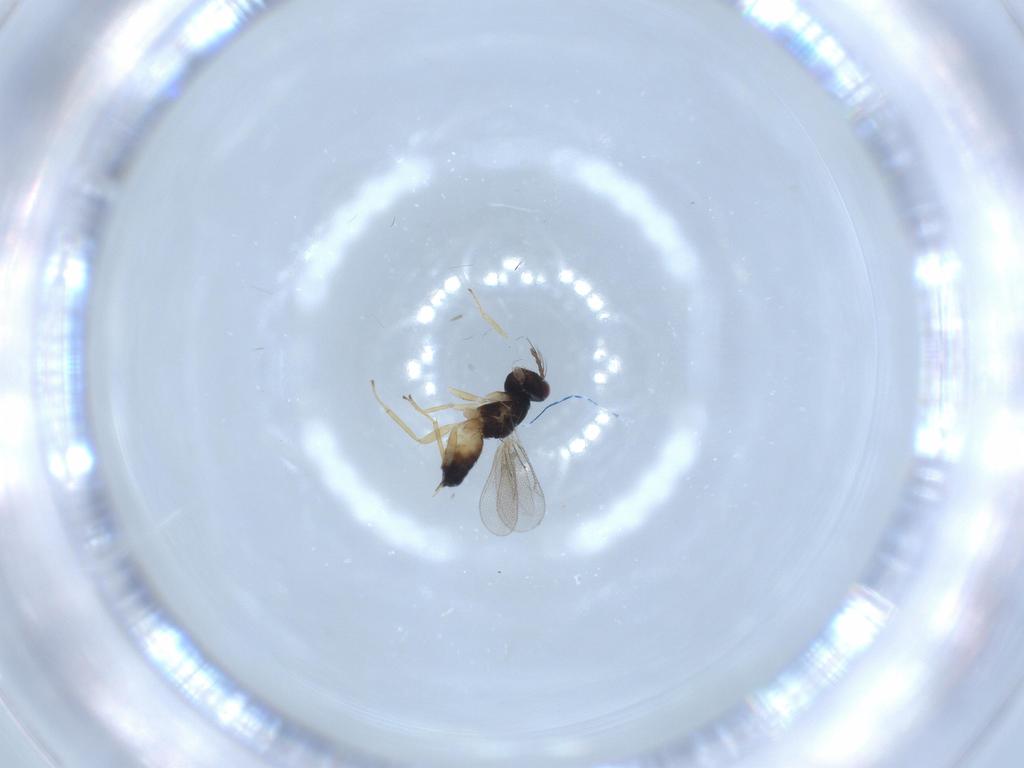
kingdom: Animalia
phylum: Arthropoda
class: Insecta
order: Hymenoptera
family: Eulophidae
